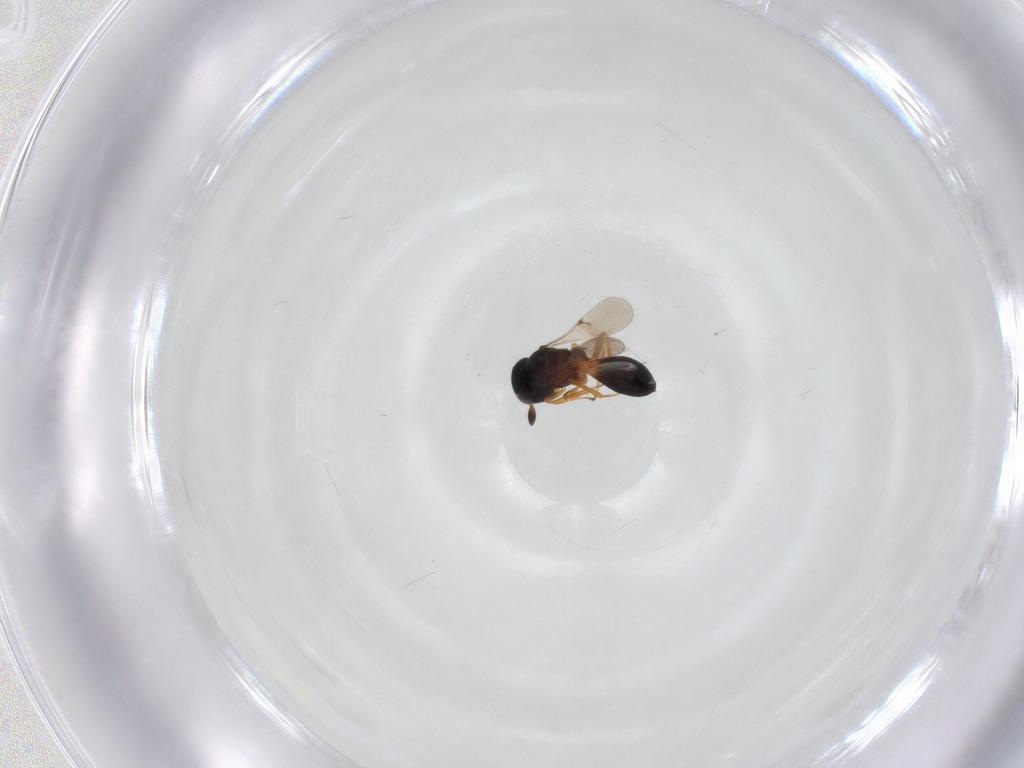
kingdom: Animalia
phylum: Arthropoda
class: Insecta
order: Hymenoptera
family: Scelionidae
